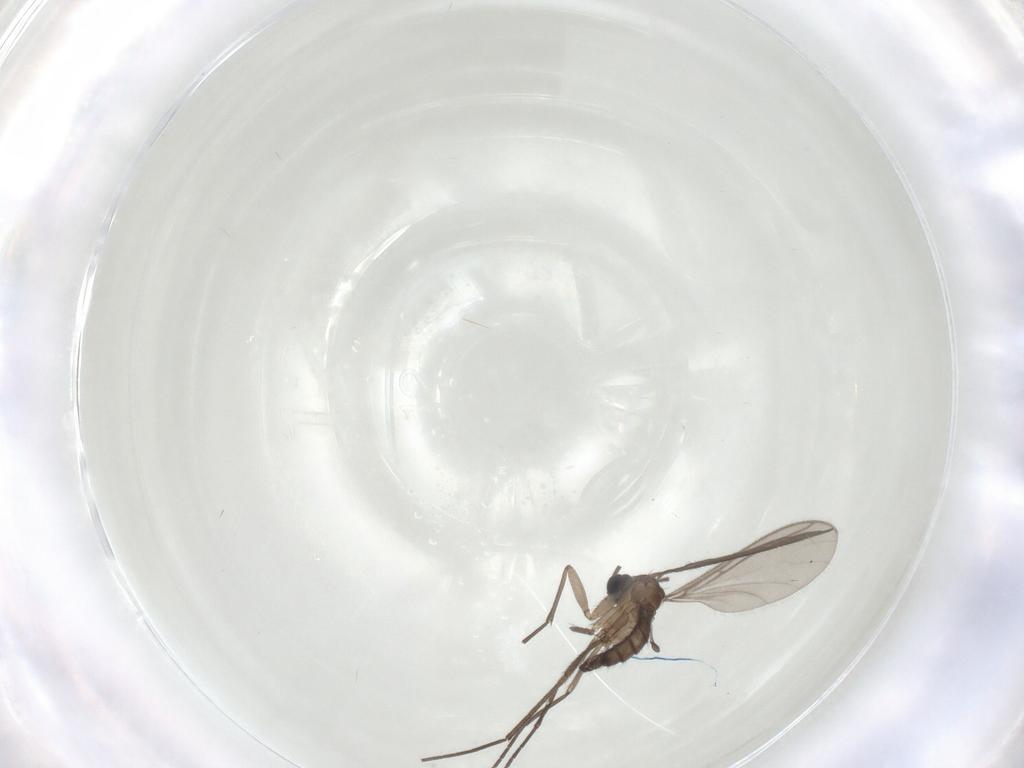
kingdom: Animalia
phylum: Arthropoda
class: Insecta
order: Diptera
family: Sciaridae
